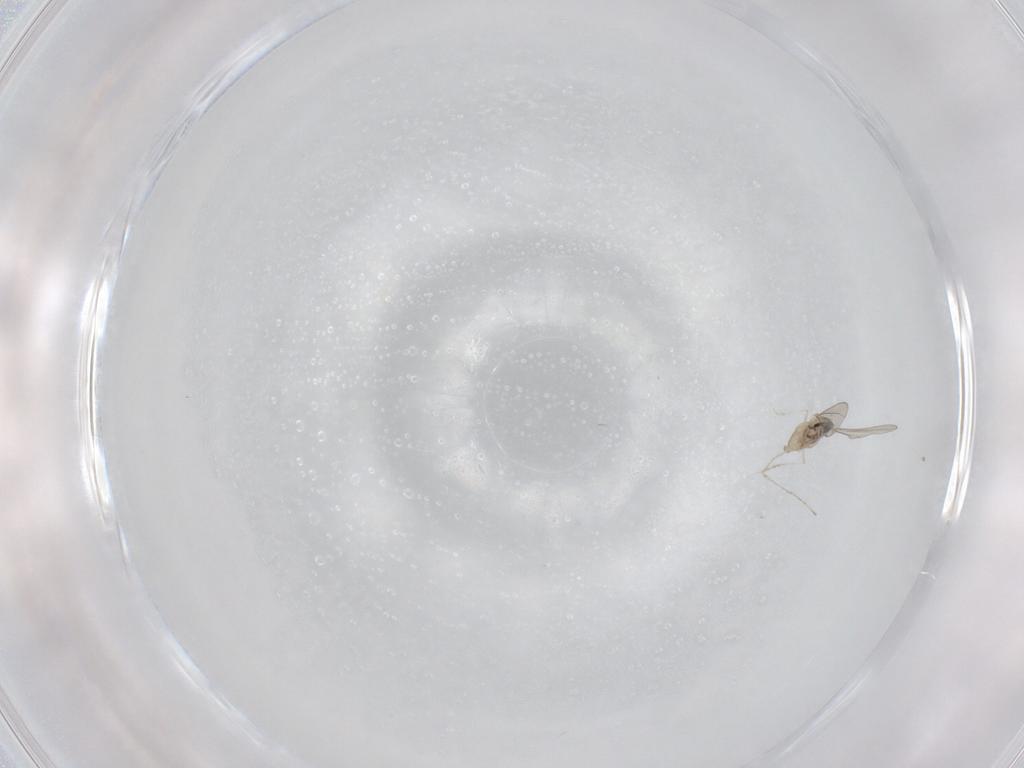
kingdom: Animalia
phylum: Arthropoda
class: Insecta
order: Diptera
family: Cecidomyiidae
